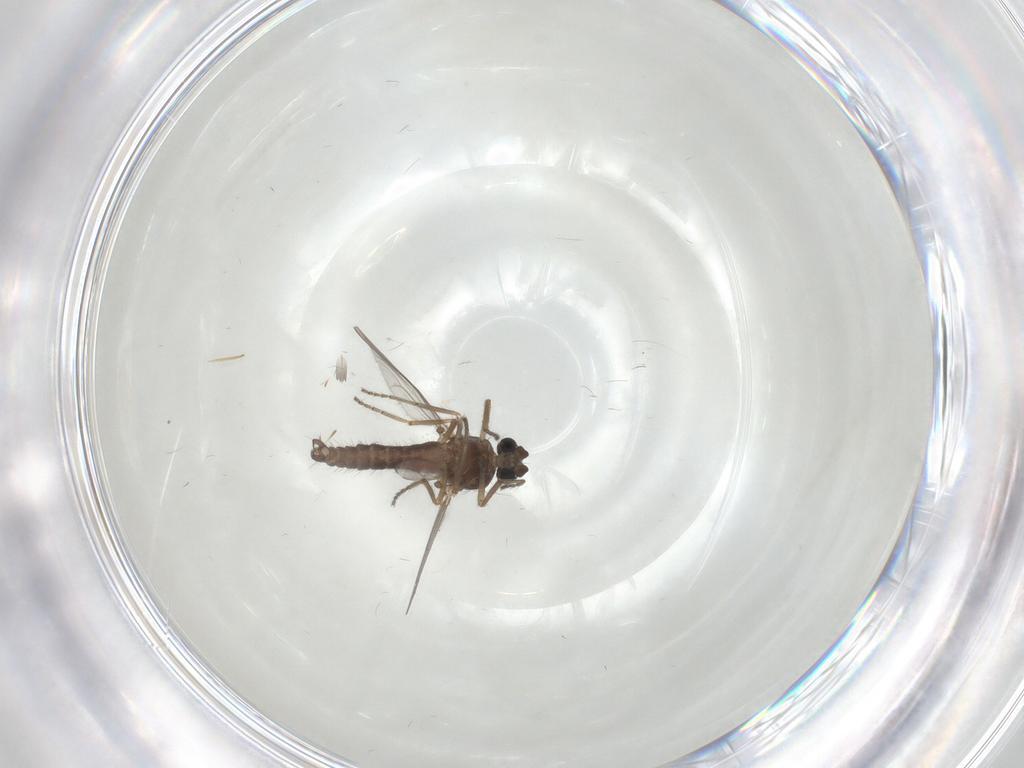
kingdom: Animalia
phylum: Arthropoda
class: Insecta
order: Diptera
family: Ceratopogonidae
